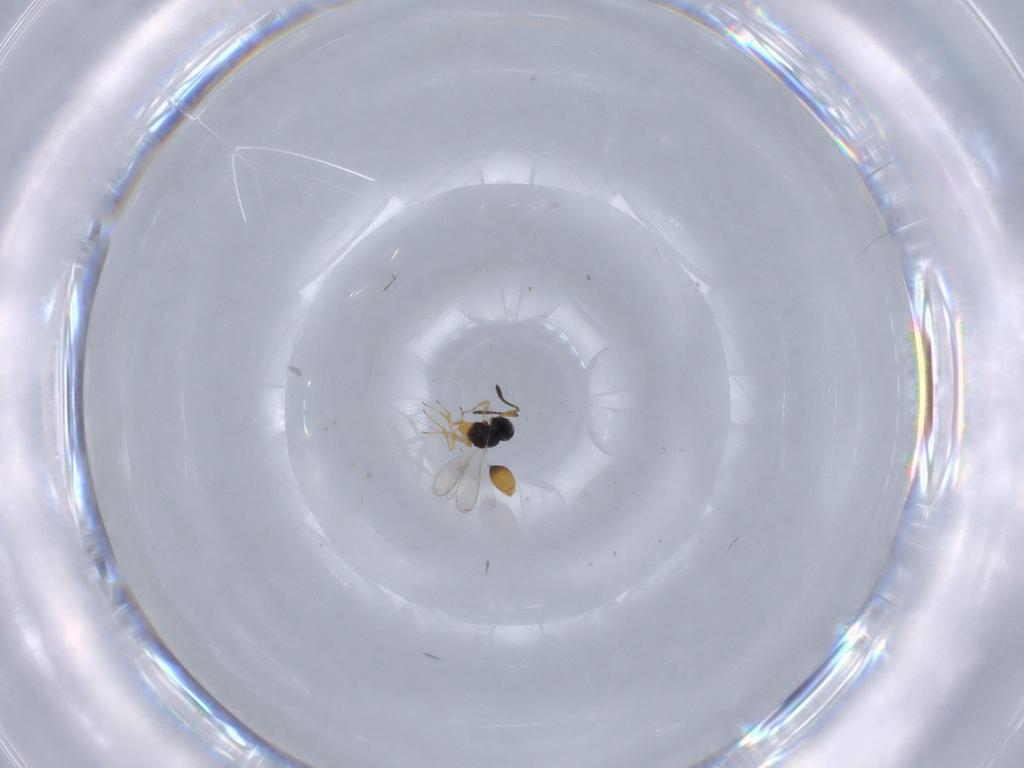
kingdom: Animalia
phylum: Arthropoda
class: Insecta
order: Hymenoptera
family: Scelionidae
